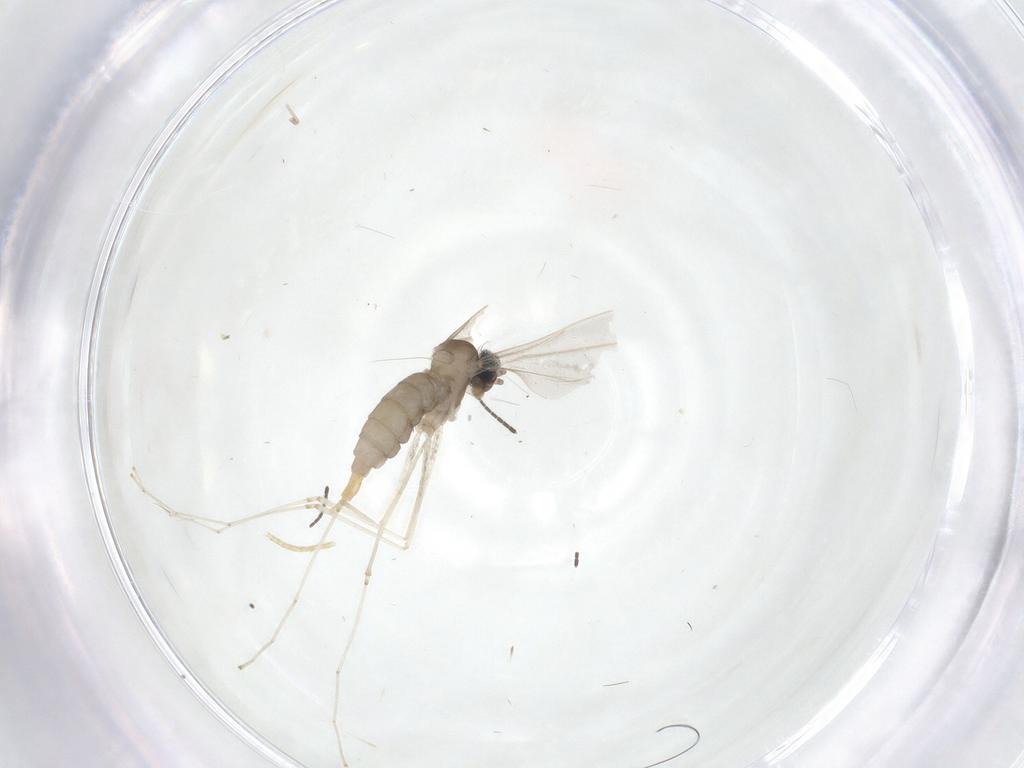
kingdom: Animalia
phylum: Arthropoda
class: Insecta
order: Diptera
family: Cecidomyiidae
